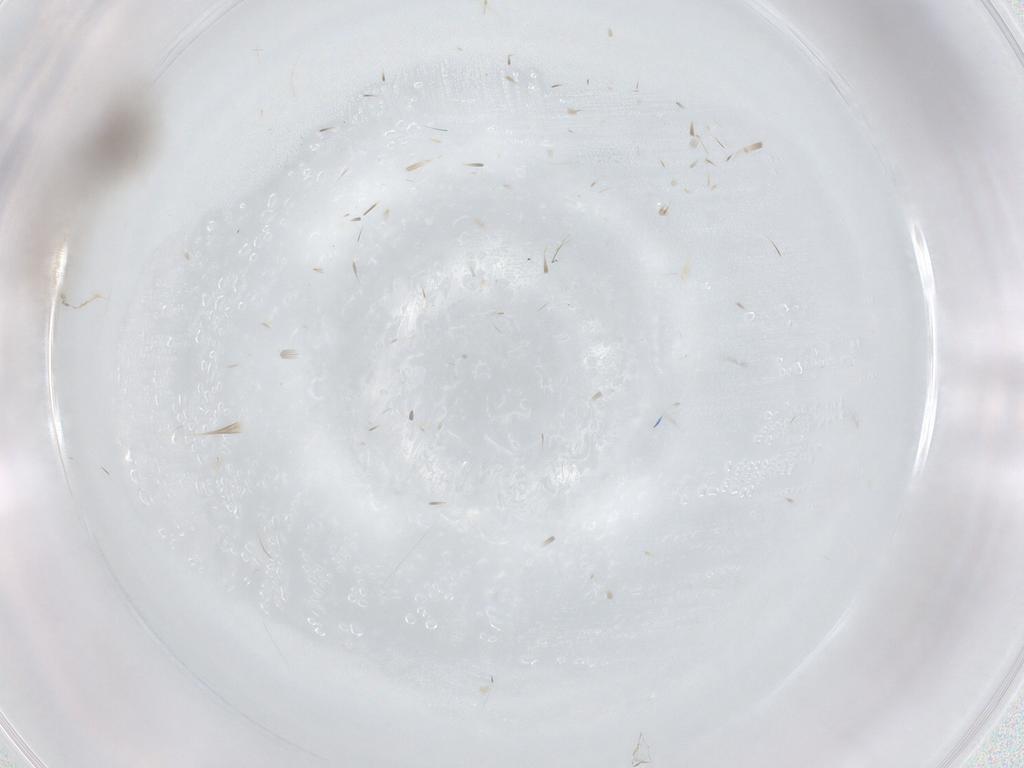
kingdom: Animalia
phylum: Arthropoda
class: Insecta
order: Diptera
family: Cecidomyiidae
